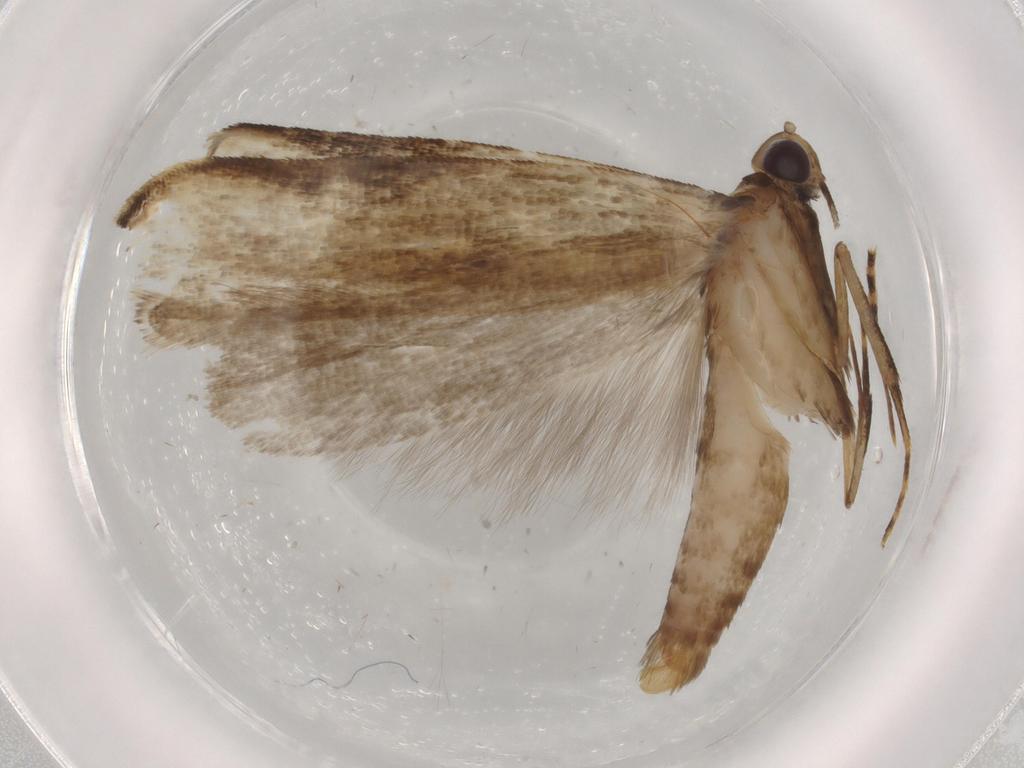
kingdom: Animalia
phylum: Arthropoda
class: Insecta
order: Lepidoptera
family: Gelechiidae
